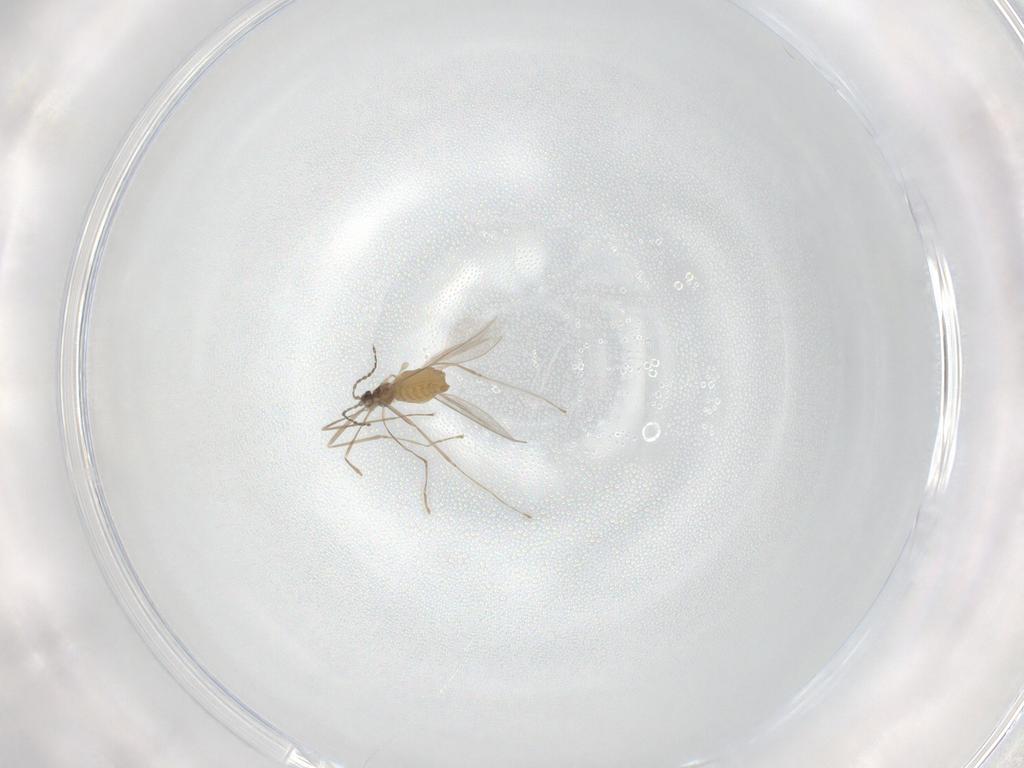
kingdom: Animalia
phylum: Arthropoda
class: Insecta
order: Diptera
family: Cecidomyiidae
